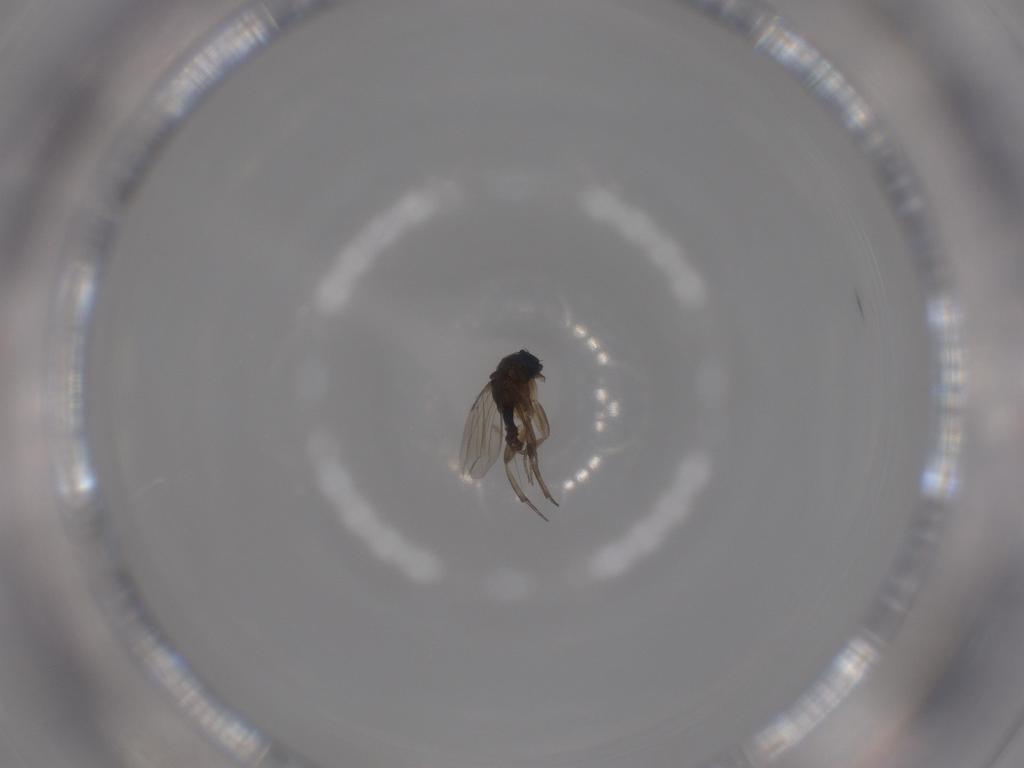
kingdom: Animalia
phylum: Arthropoda
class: Insecta
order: Diptera
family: Phoridae
